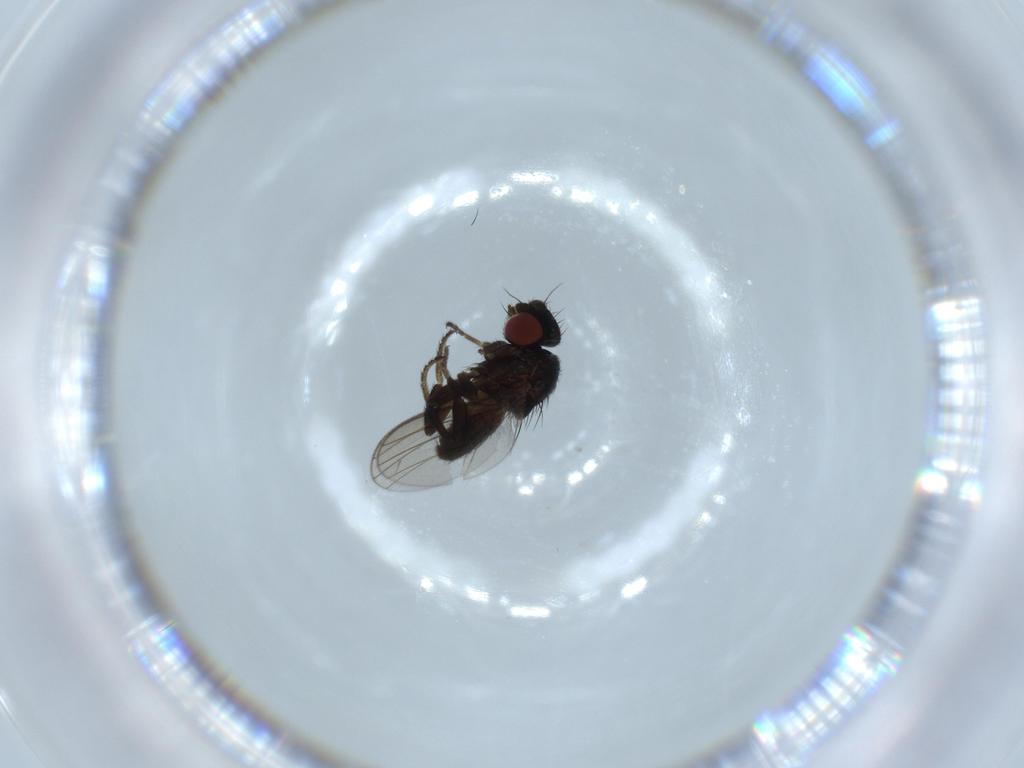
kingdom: Animalia
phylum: Arthropoda
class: Insecta
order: Diptera
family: Milichiidae
